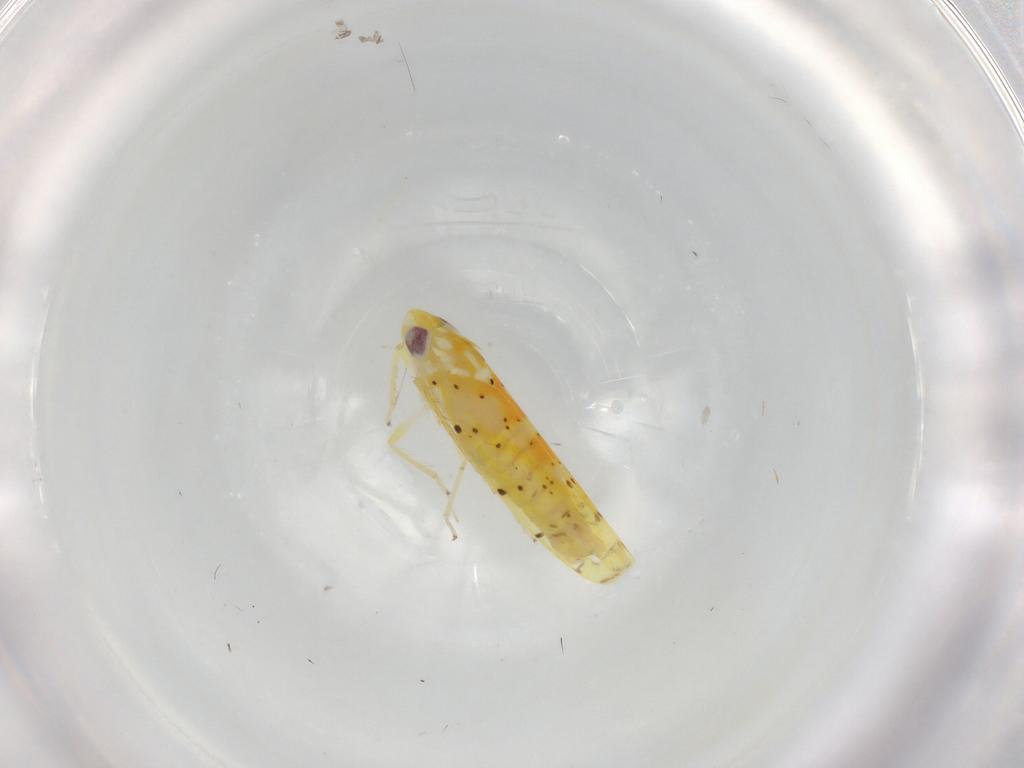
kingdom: Animalia
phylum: Arthropoda
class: Insecta
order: Hemiptera
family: Cicadellidae
